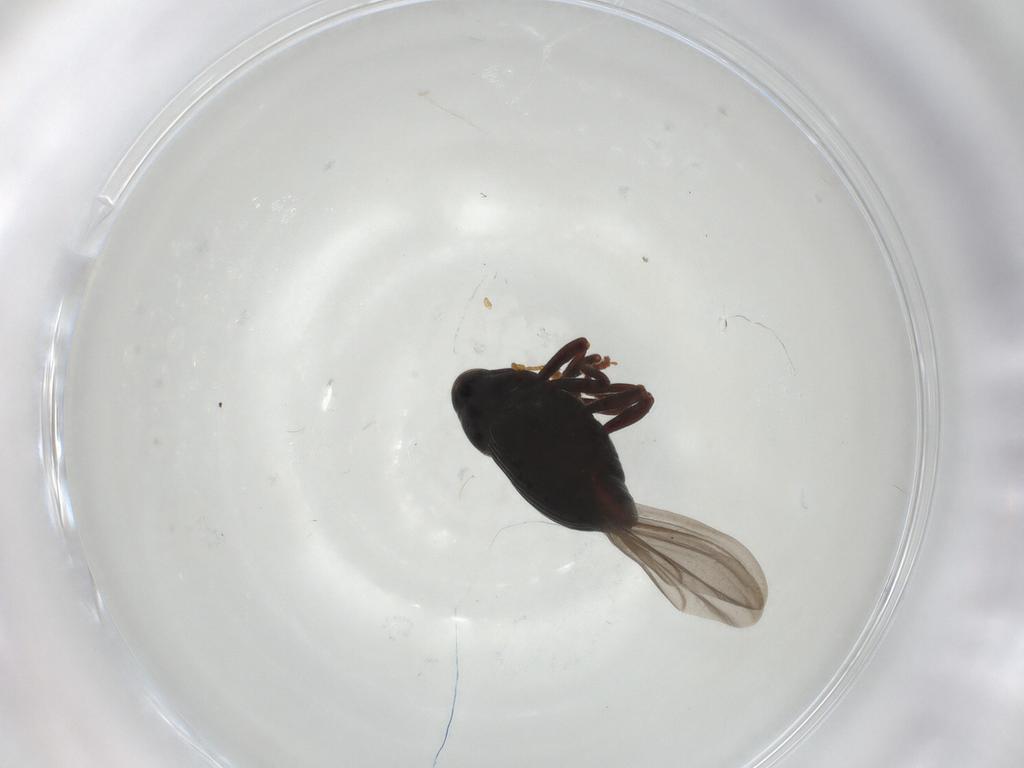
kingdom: Animalia
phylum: Arthropoda
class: Insecta
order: Coleoptera
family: Curculionidae
